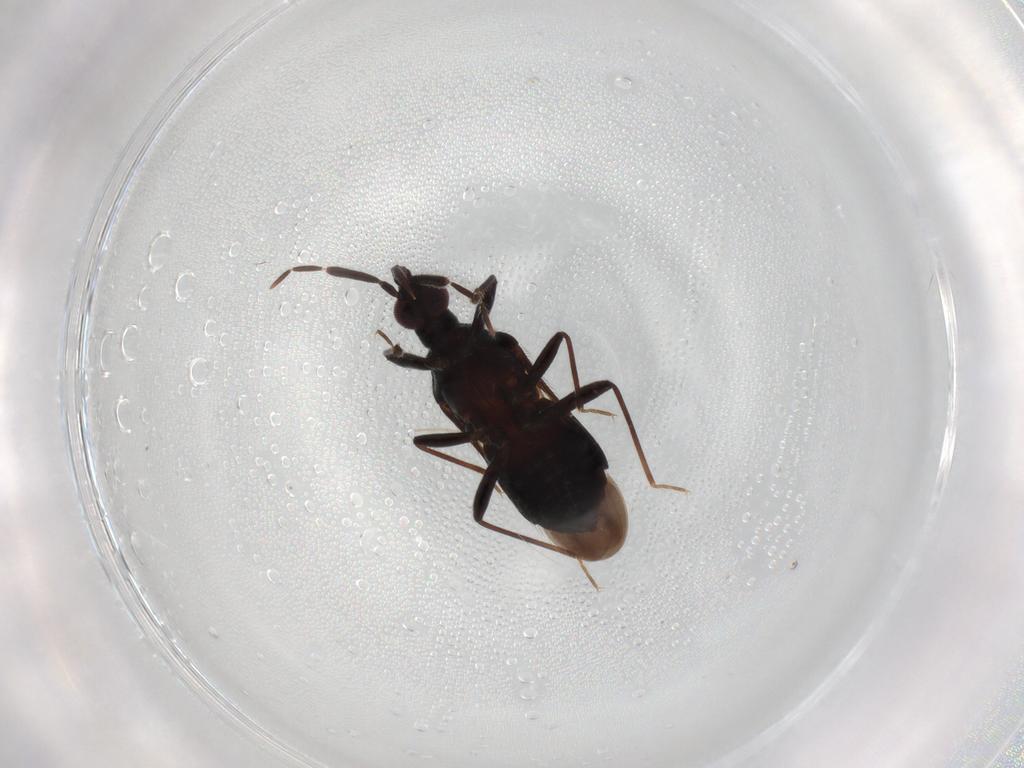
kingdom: Animalia
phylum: Arthropoda
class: Insecta
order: Hemiptera
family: Anthocoridae
